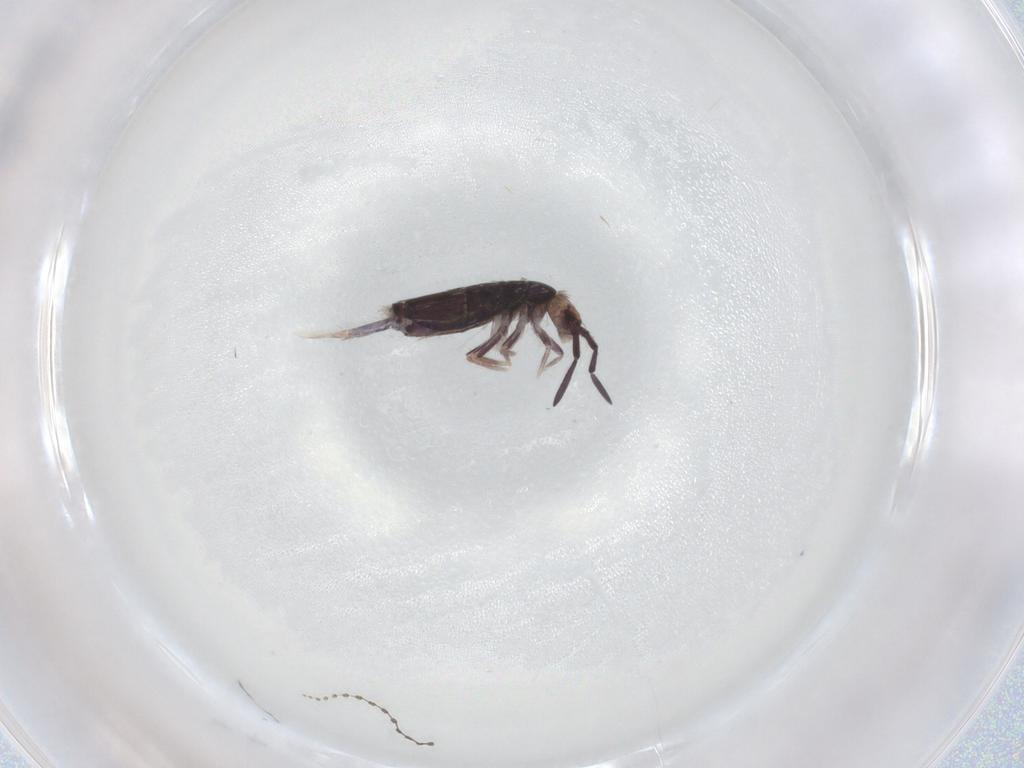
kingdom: Animalia
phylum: Arthropoda
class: Collembola
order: Entomobryomorpha
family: Entomobryidae
